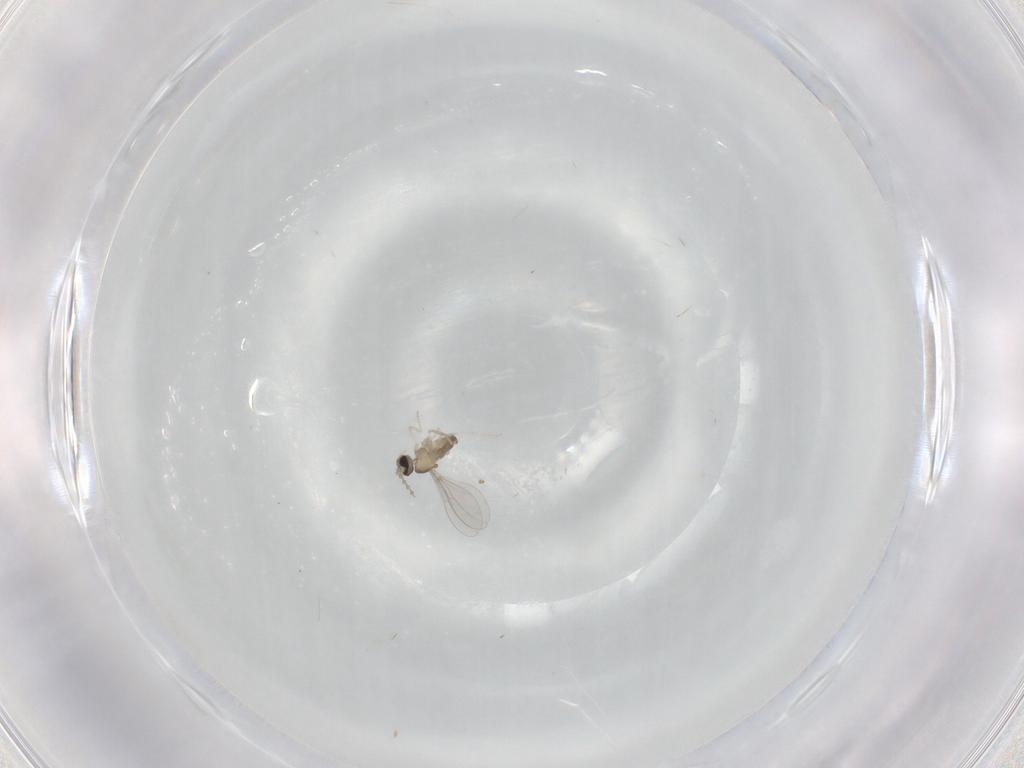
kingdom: Animalia
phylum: Arthropoda
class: Insecta
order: Diptera
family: Cecidomyiidae
